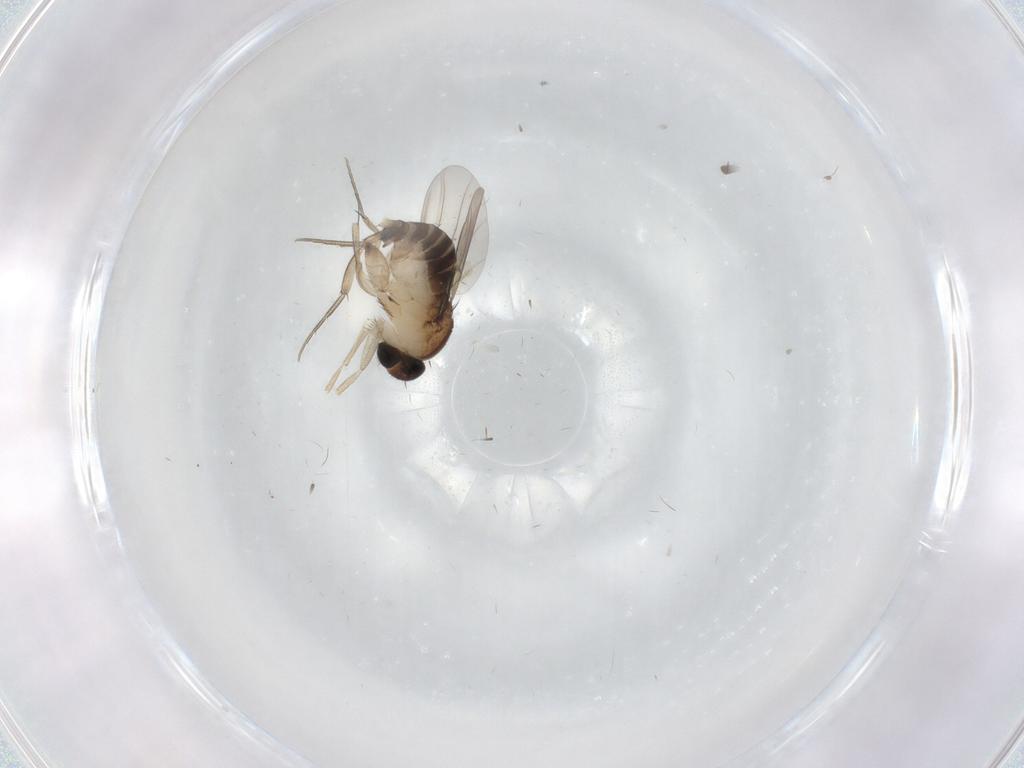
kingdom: Animalia
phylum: Arthropoda
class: Insecta
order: Diptera
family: Phoridae
